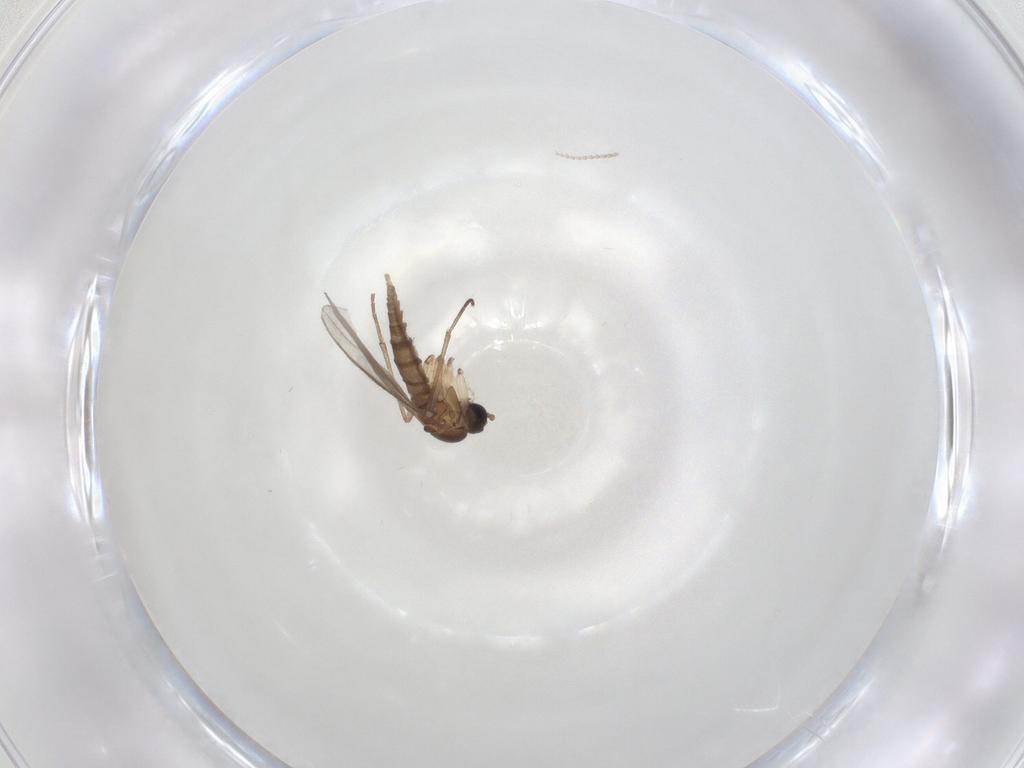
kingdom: Animalia
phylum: Arthropoda
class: Insecta
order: Diptera
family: Sciaridae
